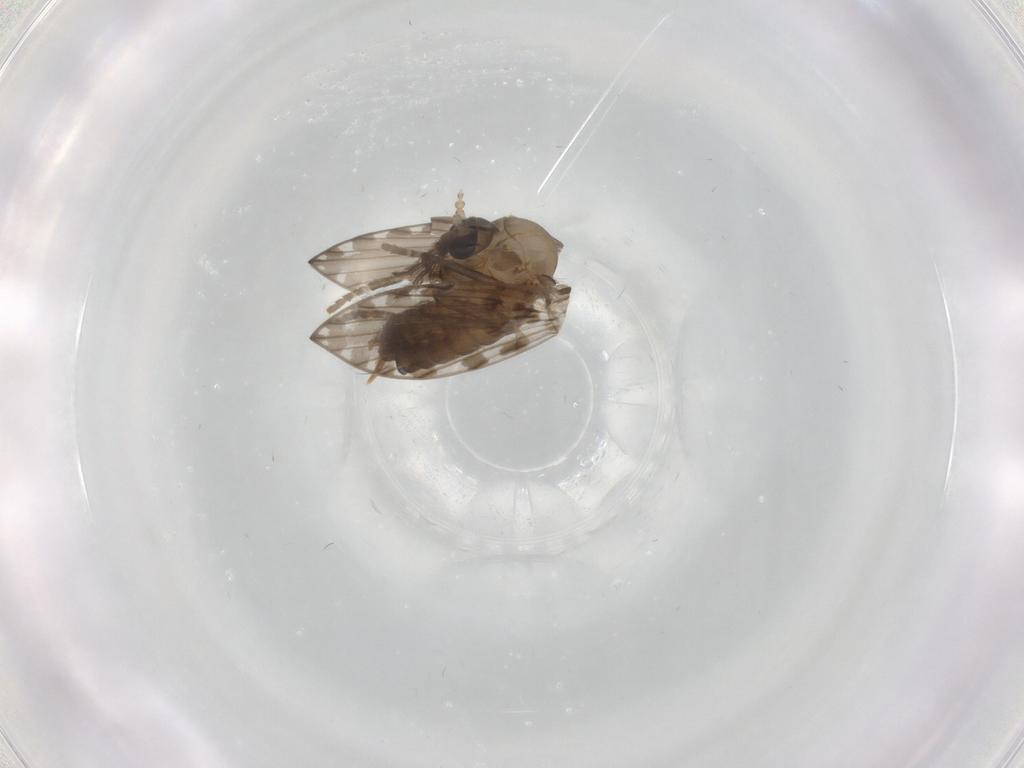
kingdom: Animalia
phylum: Arthropoda
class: Insecta
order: Diptera
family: Psychodidae
